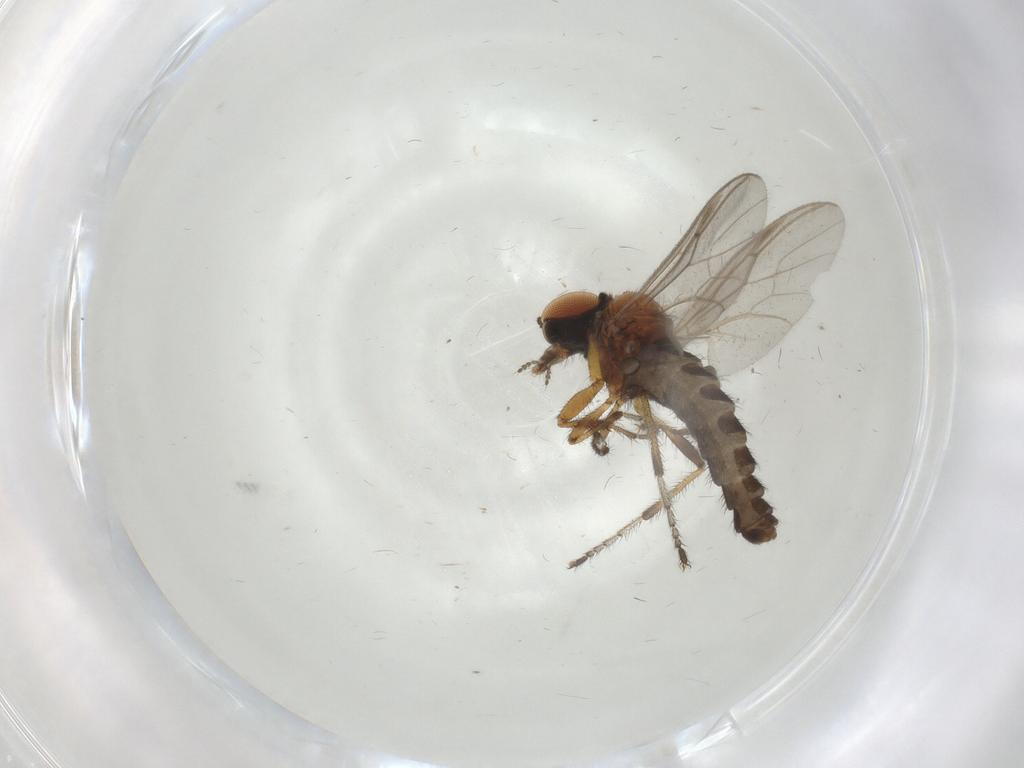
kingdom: Animalia
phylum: Arthropoda
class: Insecta
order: Diptera
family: Bibionidae
